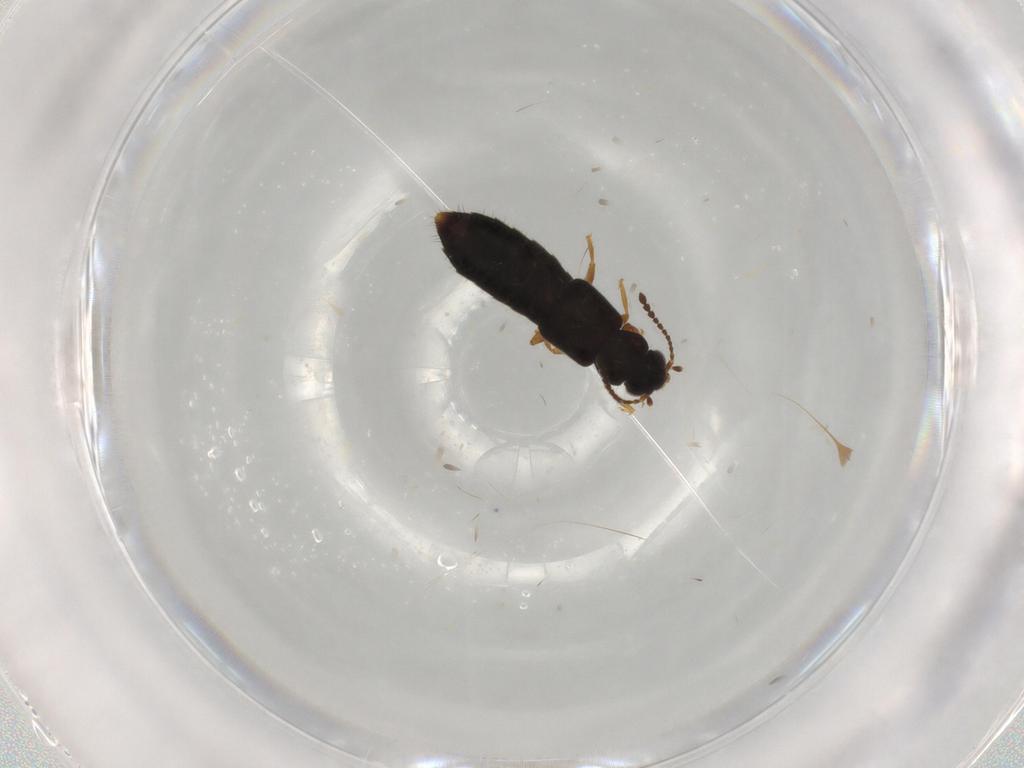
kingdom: Animalia
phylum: Arthropoda
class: Insecta
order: Coleoptera
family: Staphylinidae
